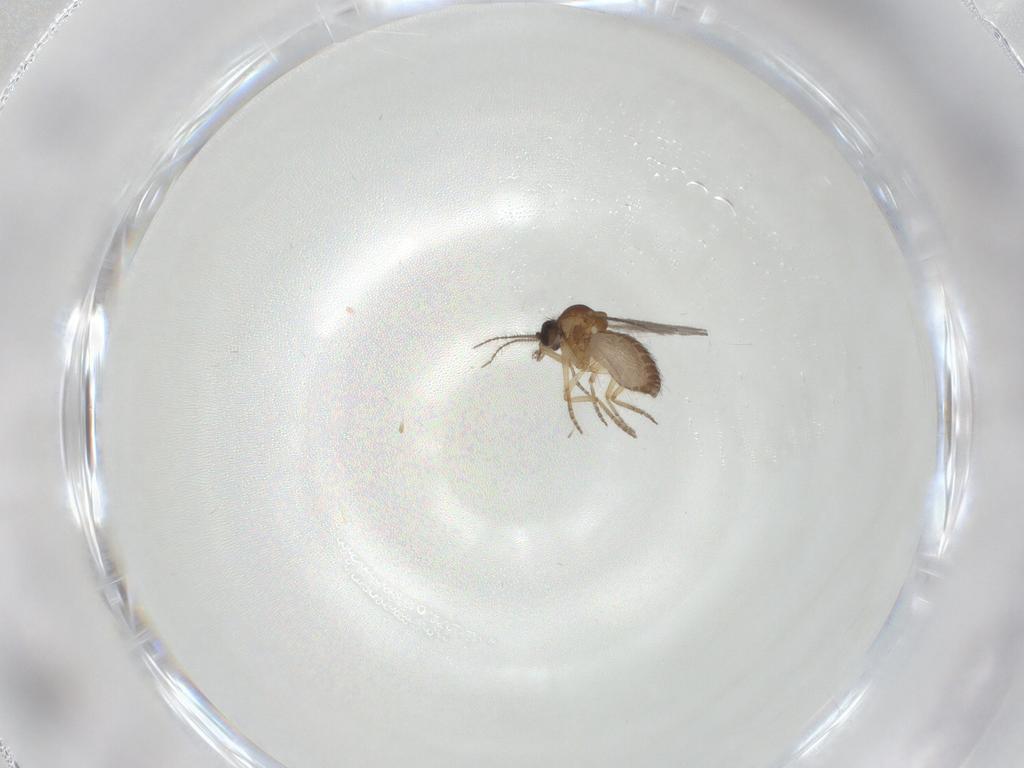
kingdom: Animalia
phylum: Arthropoda
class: Insecta
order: Diptera
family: Ceratopogonidae
